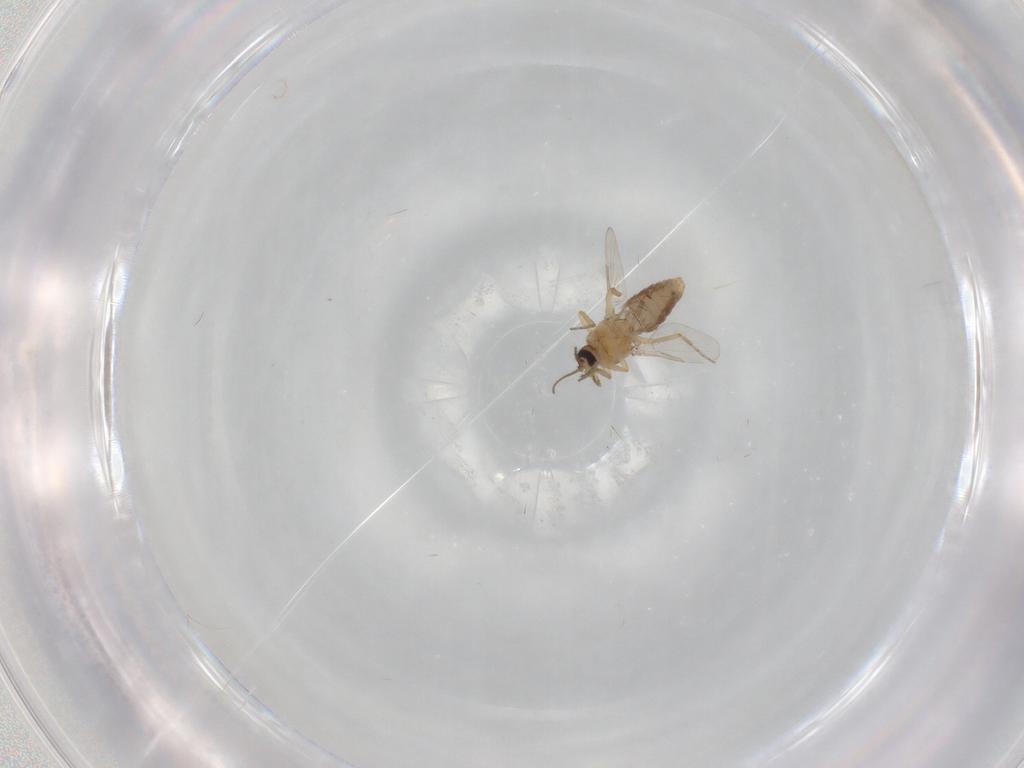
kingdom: Animalia
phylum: Arthropoda
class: Insecta
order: Diptera
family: Ceratopogonidae
